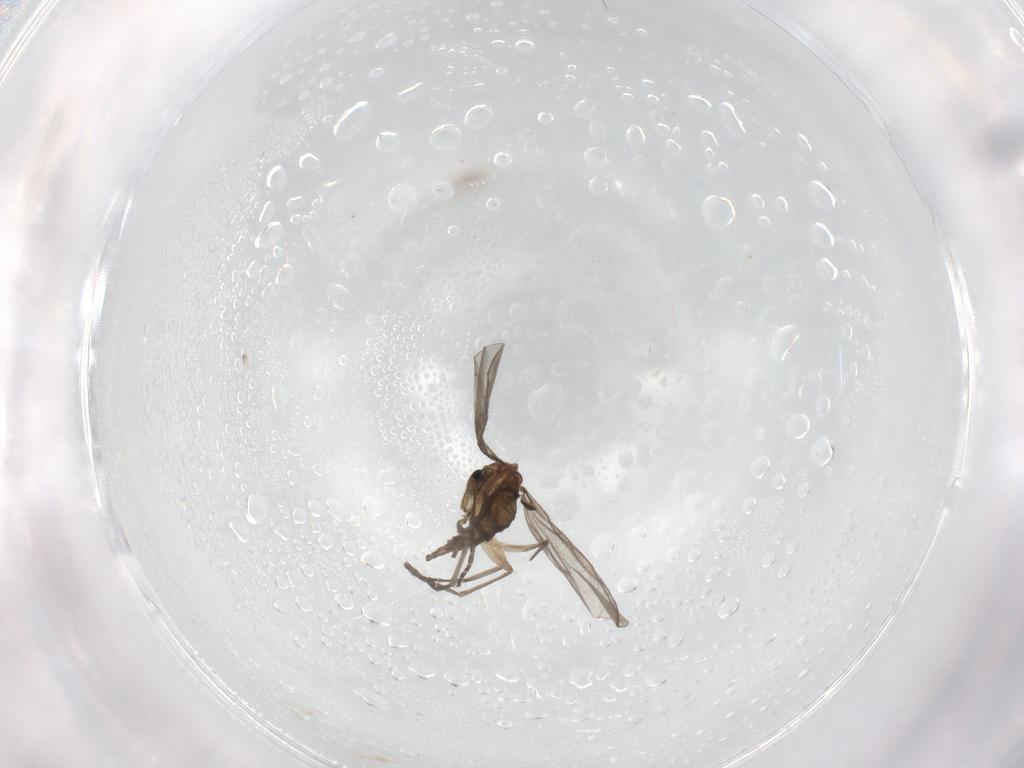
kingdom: Animalia
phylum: Arthropoda
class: Insecta
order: Diptera
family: Sciaridae
